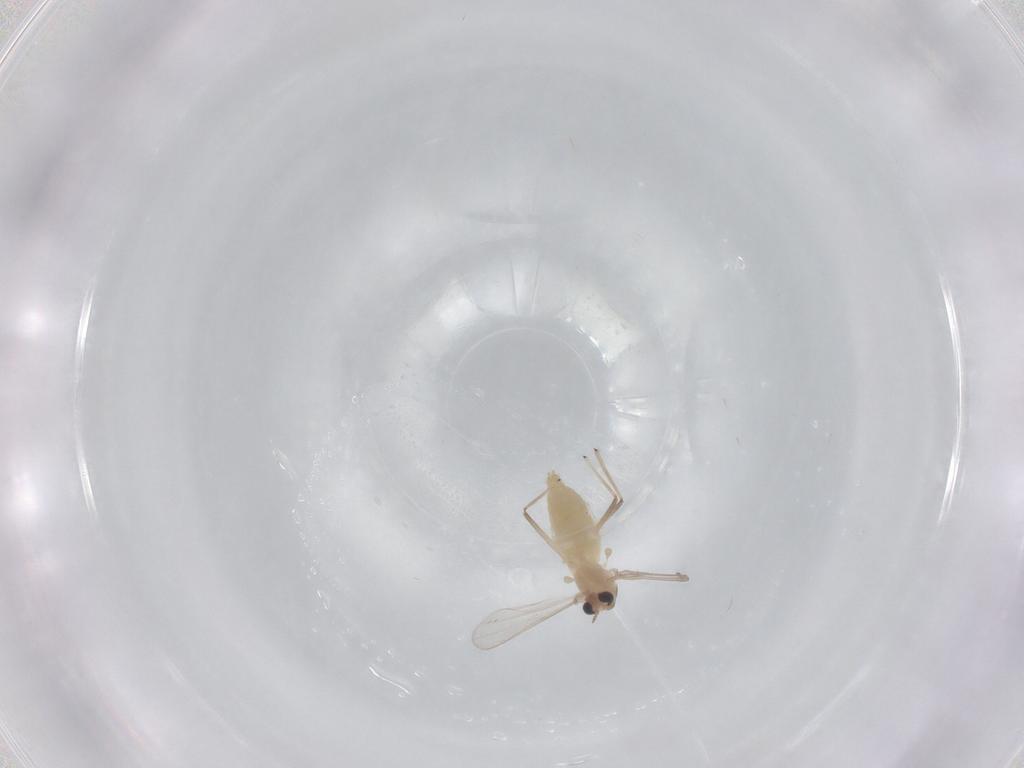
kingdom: Animalia
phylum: Arthropoda
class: Insecta
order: Diptera
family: Chironomidae
